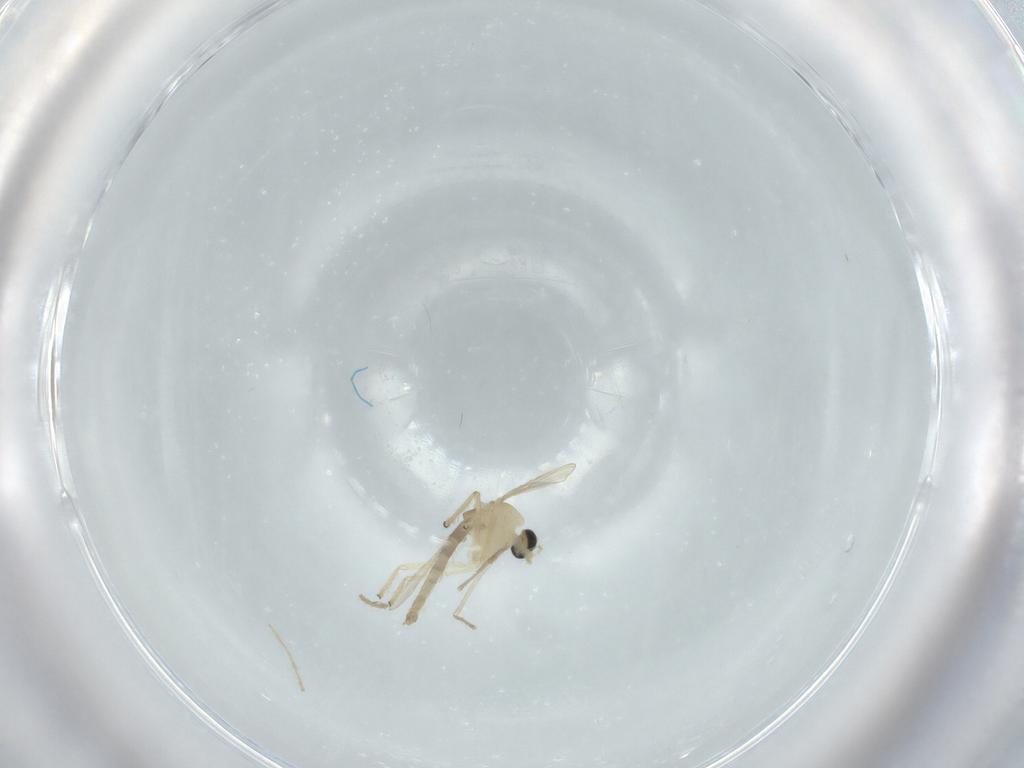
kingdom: Animalia
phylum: Arthropoda
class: Insecta
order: Diptera
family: Chironomidae
